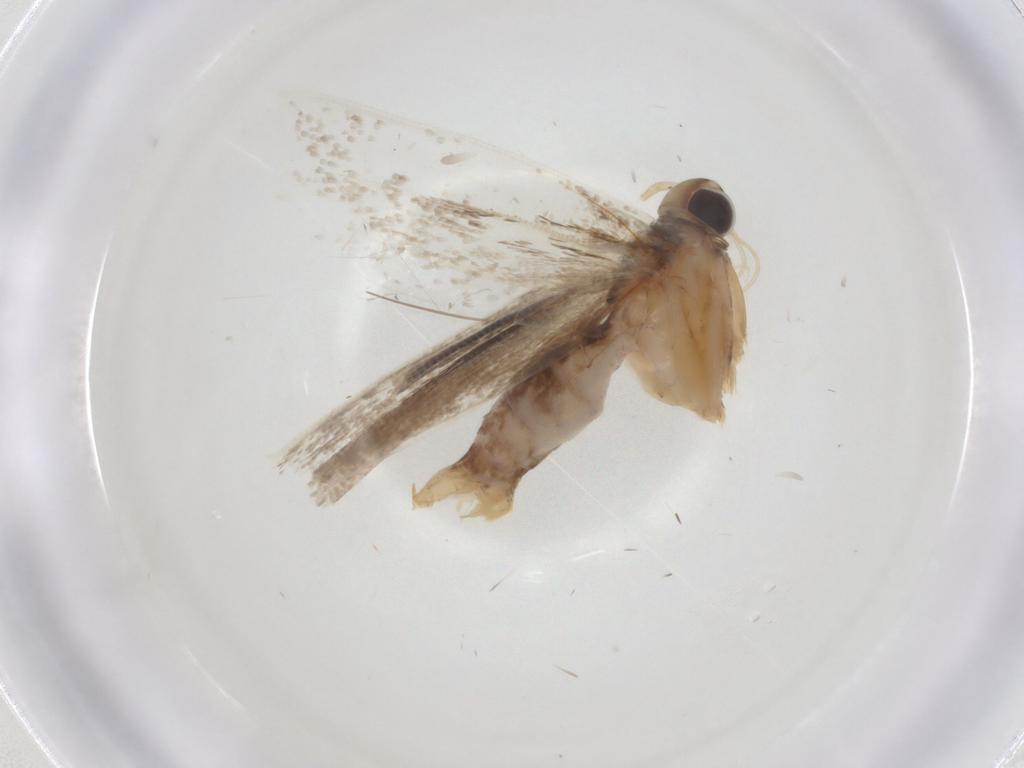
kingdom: Animalia
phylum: Arthropoda
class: Insecta
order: Lepidoptera
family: Gelechiidae
